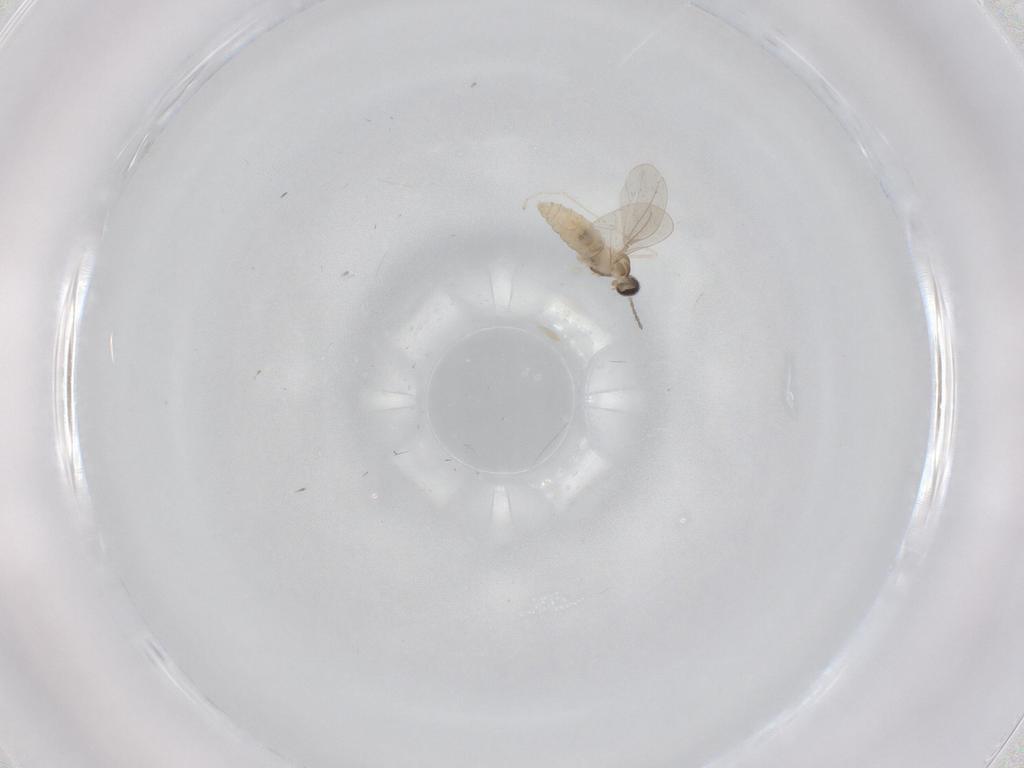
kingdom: Animalia
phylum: Arthropoda
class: Insecta
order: Diptera
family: Cecidomyiidae
